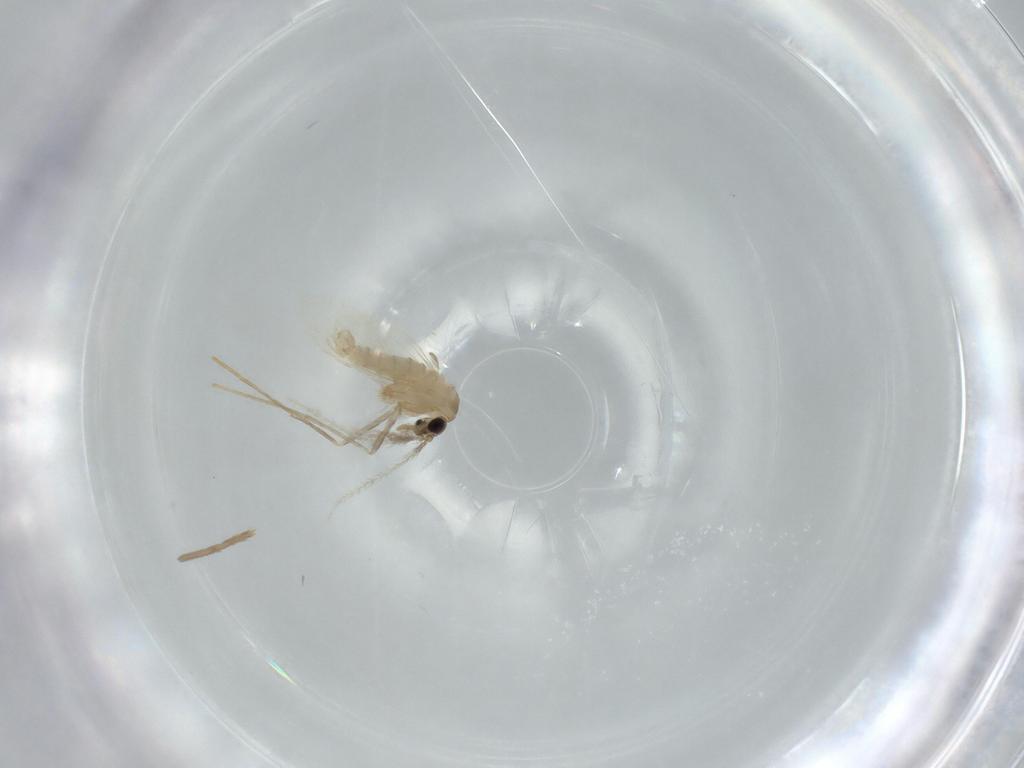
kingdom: Animalia
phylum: Arthropoda
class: Insecta
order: Diptera
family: Psychodidae
